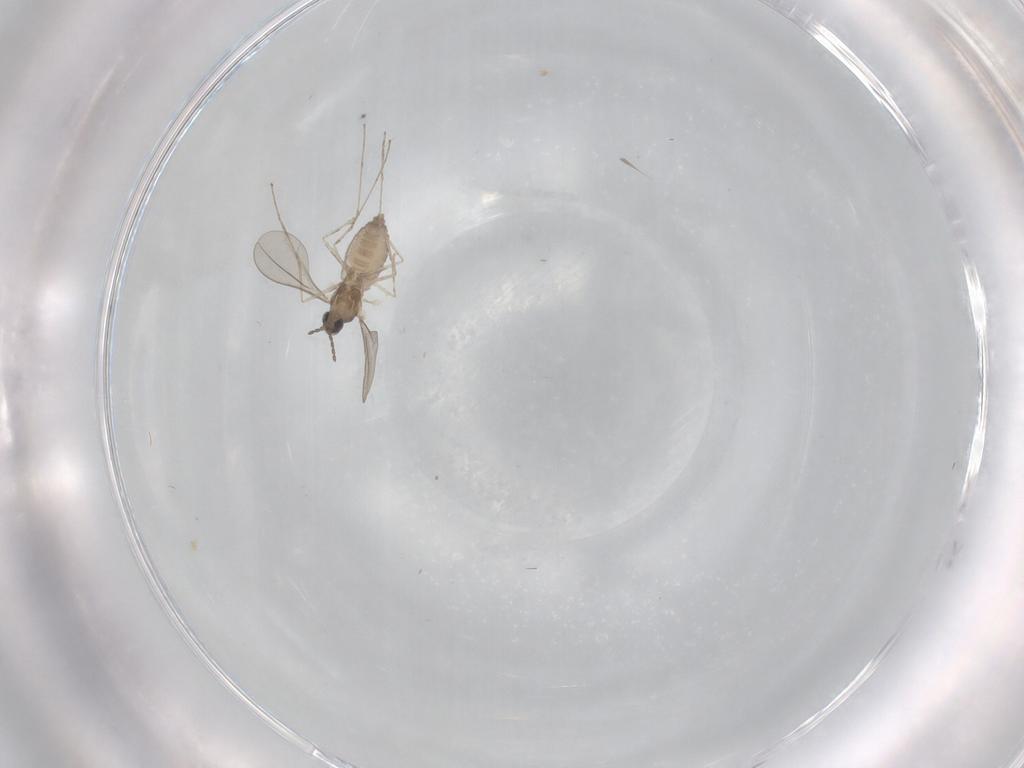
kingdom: Animalia
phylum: Arthropoda
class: Insecta
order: Diptera
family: Cecidomyiidae
